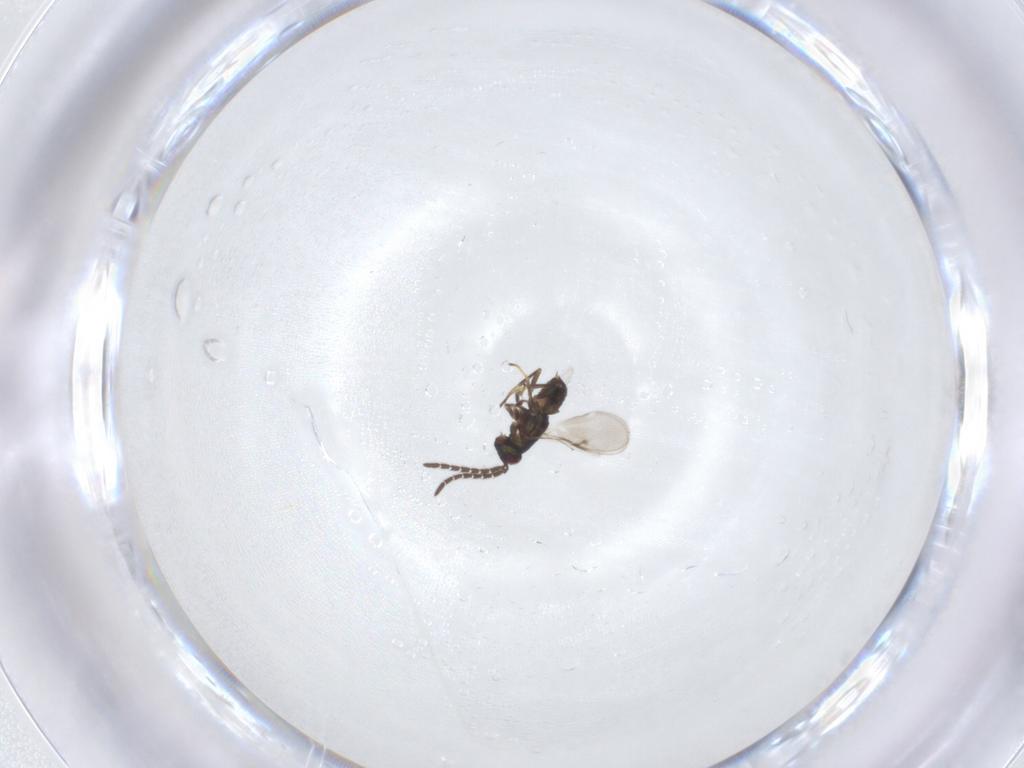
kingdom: Animalia
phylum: Arthropoda
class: Insecta
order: Hymenoptera
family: Encyrtidae
